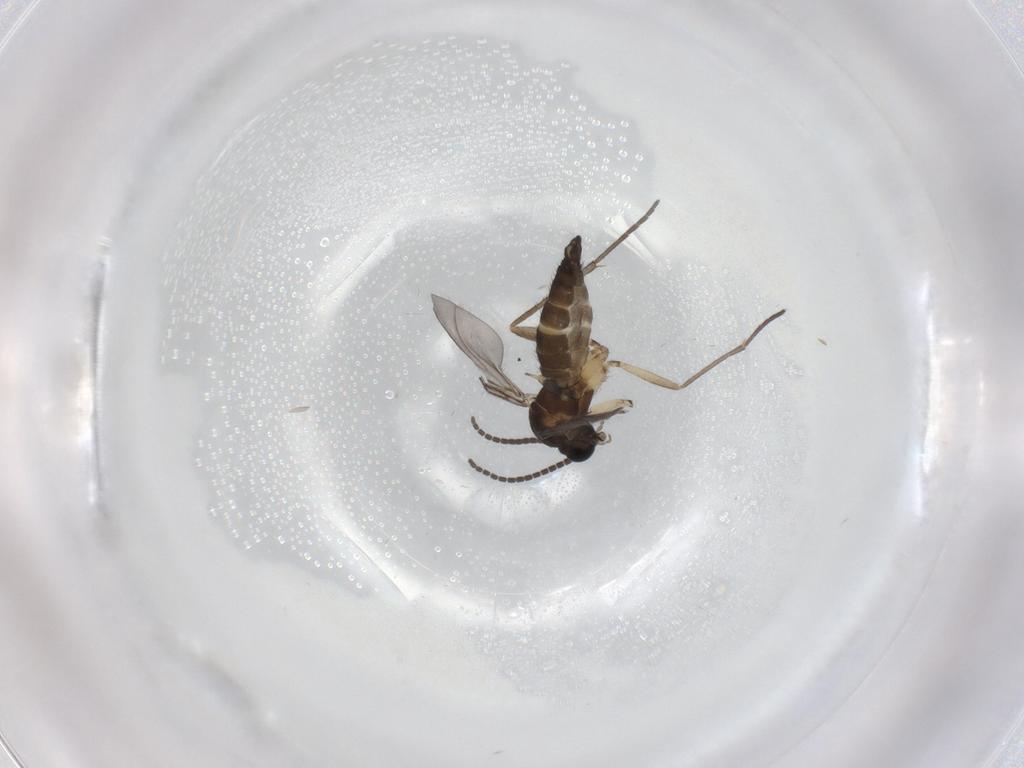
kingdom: Animalia
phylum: Arthropoda
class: Insecta
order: Diptera
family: Sciaridae
